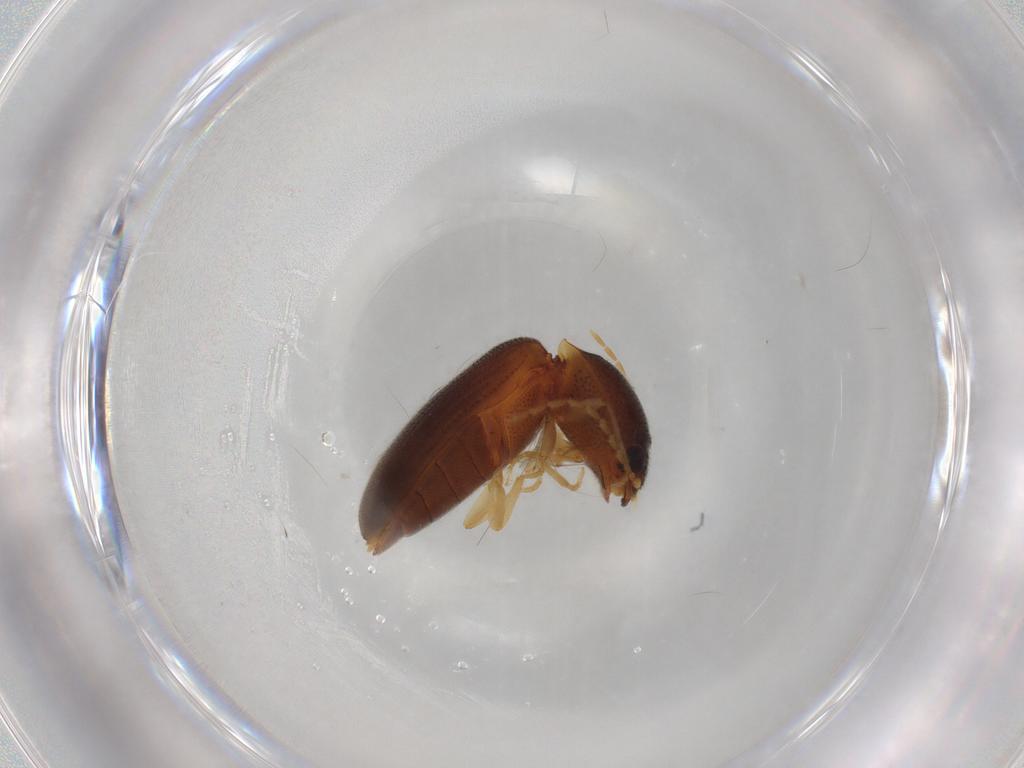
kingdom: Animalia
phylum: Arthropoda
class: Insecta
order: Coleoptera
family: Elateridae
